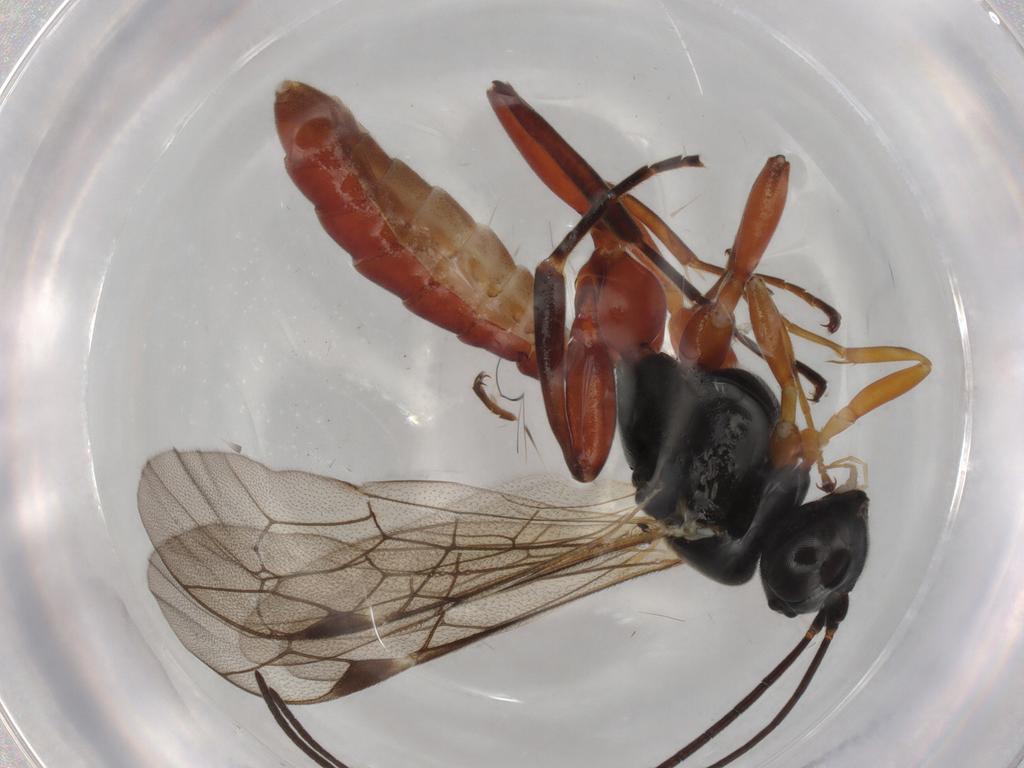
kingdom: Animalia
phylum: Arthropoda
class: Insecta
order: Hymenoptera
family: Ichneumonidae
